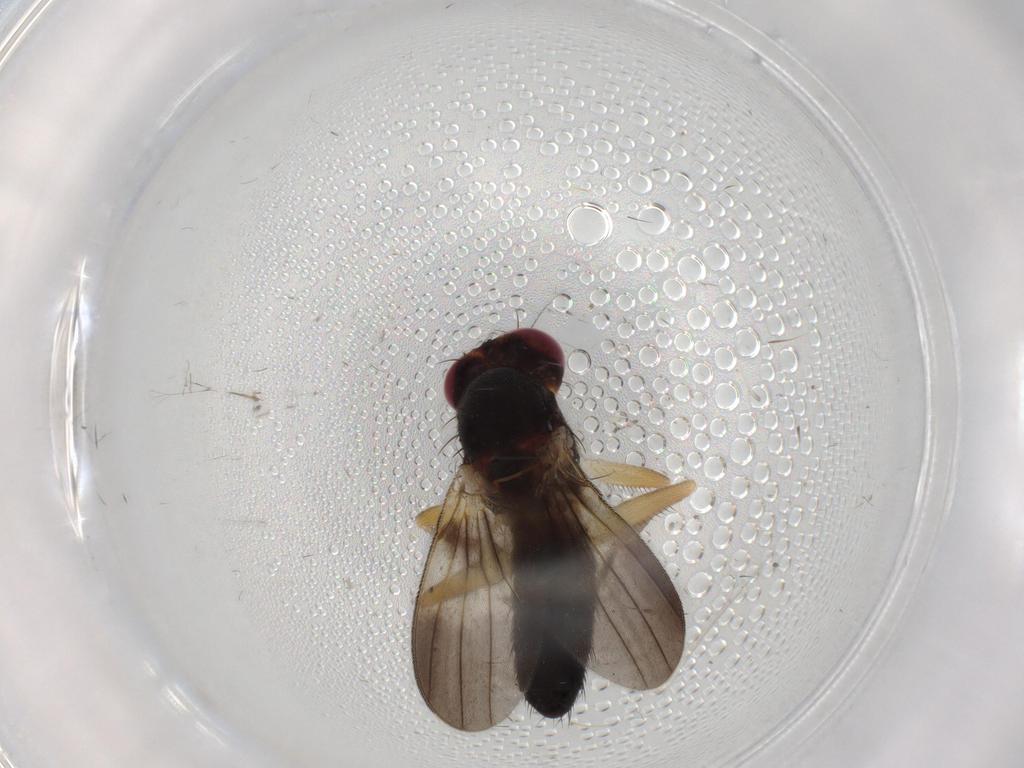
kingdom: Animalia
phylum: Arthropoda
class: Insecta
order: Diptera
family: Clusiidae
